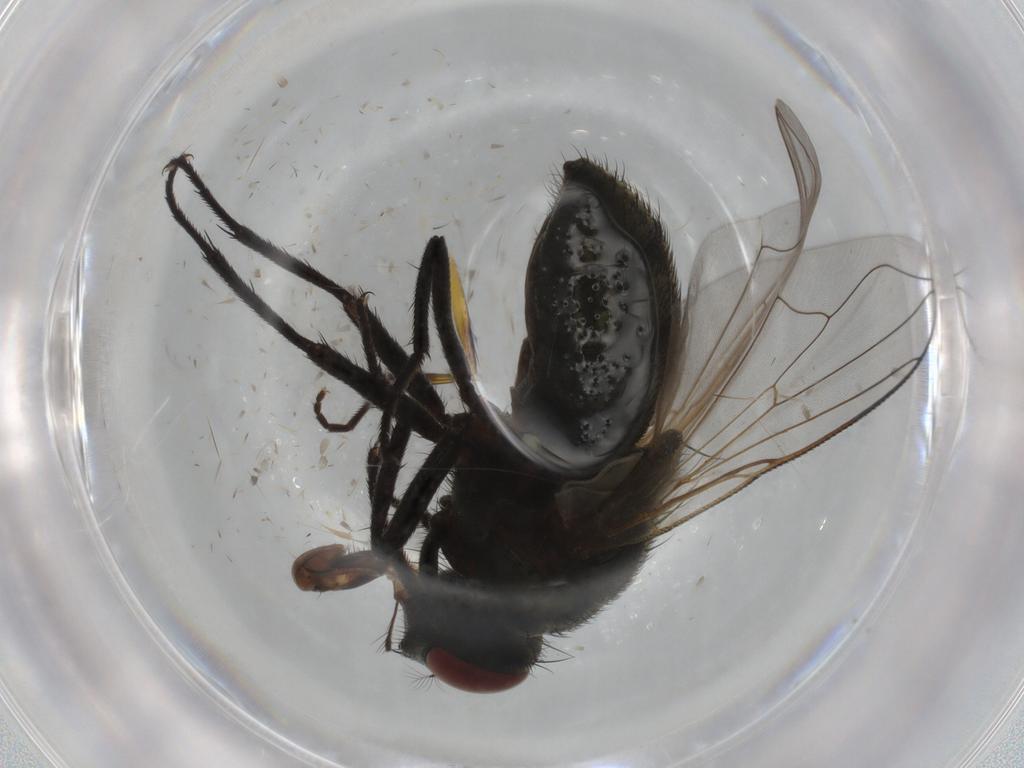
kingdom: Animalia
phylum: Arthropoda
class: Insecta
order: Diptera
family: Muscidae
